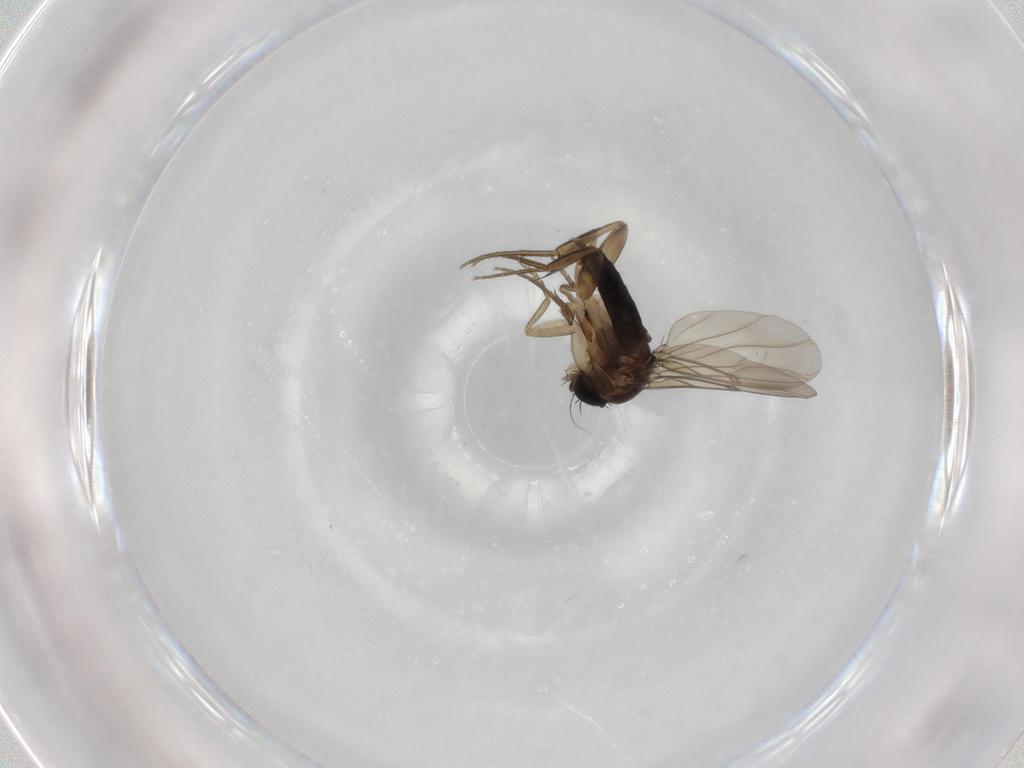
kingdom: Animalia
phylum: Arthropoda
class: Insecta
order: Diptera
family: Phoridae
